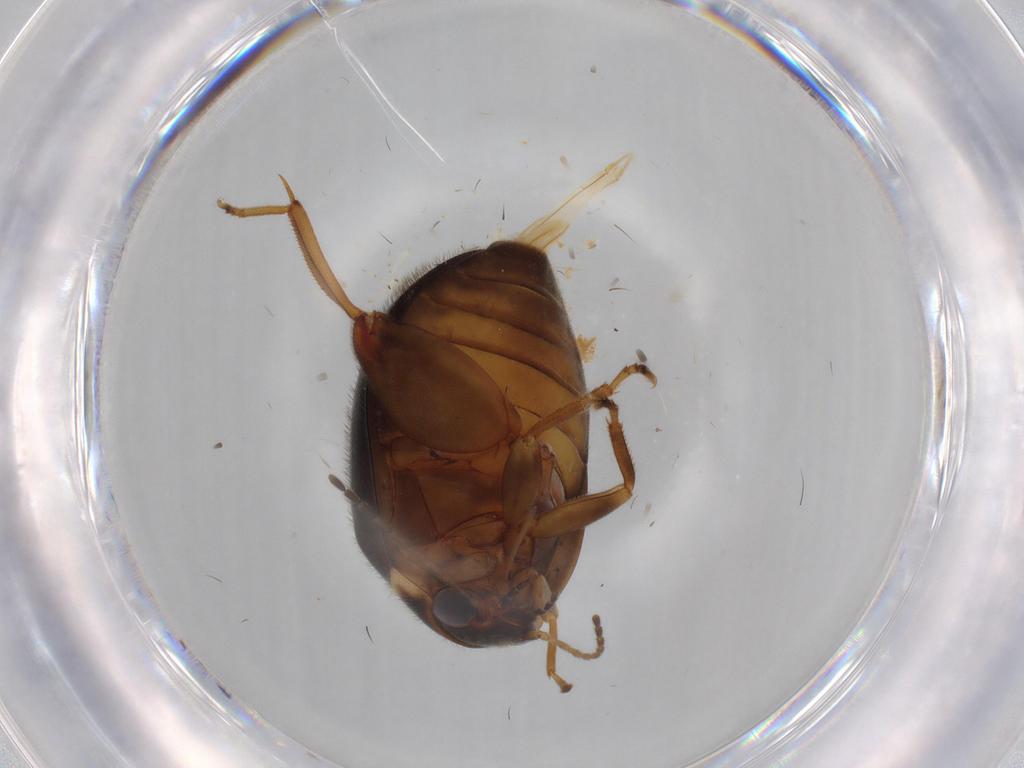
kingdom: Animalia
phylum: Arthropoda
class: Insecta
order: Coleoptera
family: Scirtidae
